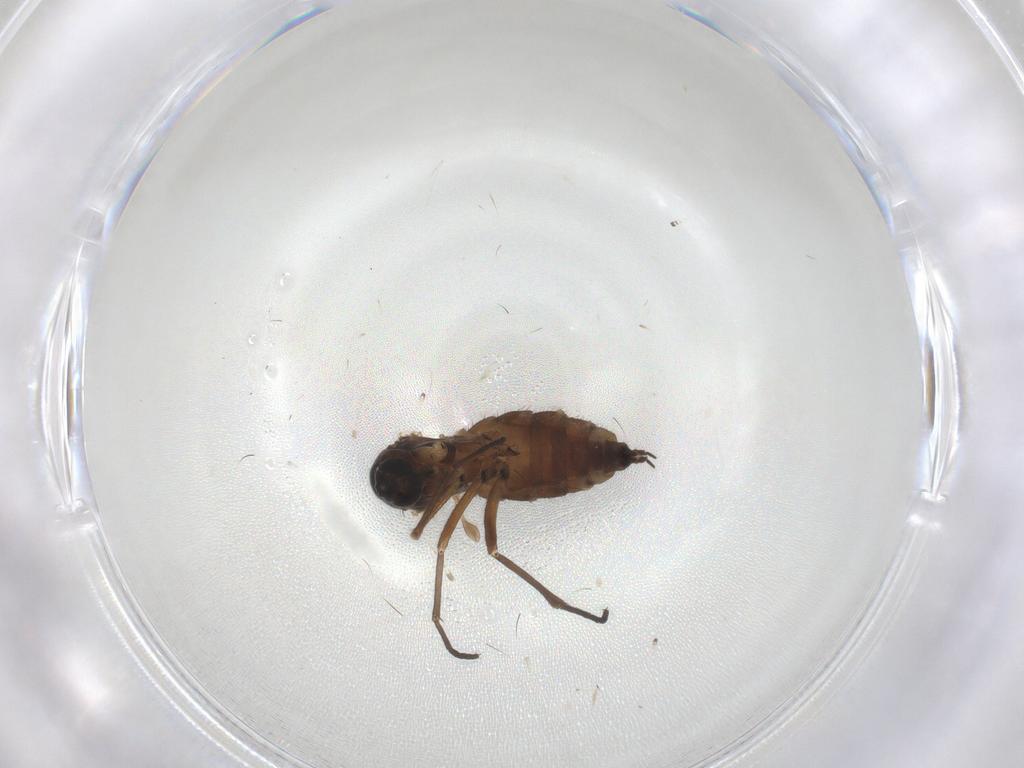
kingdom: Animalia
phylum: Arthropoda
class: Insecta
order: Diptera
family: Sciaridae
